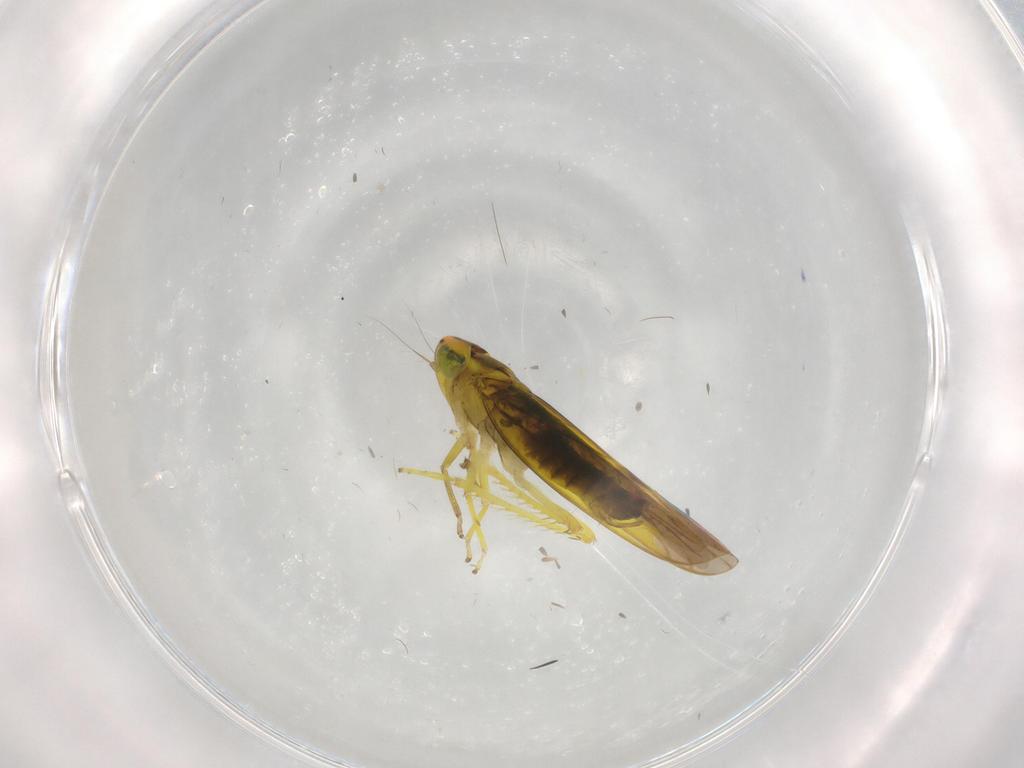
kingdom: Animalia
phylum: Arthropoda
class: Insecta
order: Hemiptera
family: Cicadellidae
